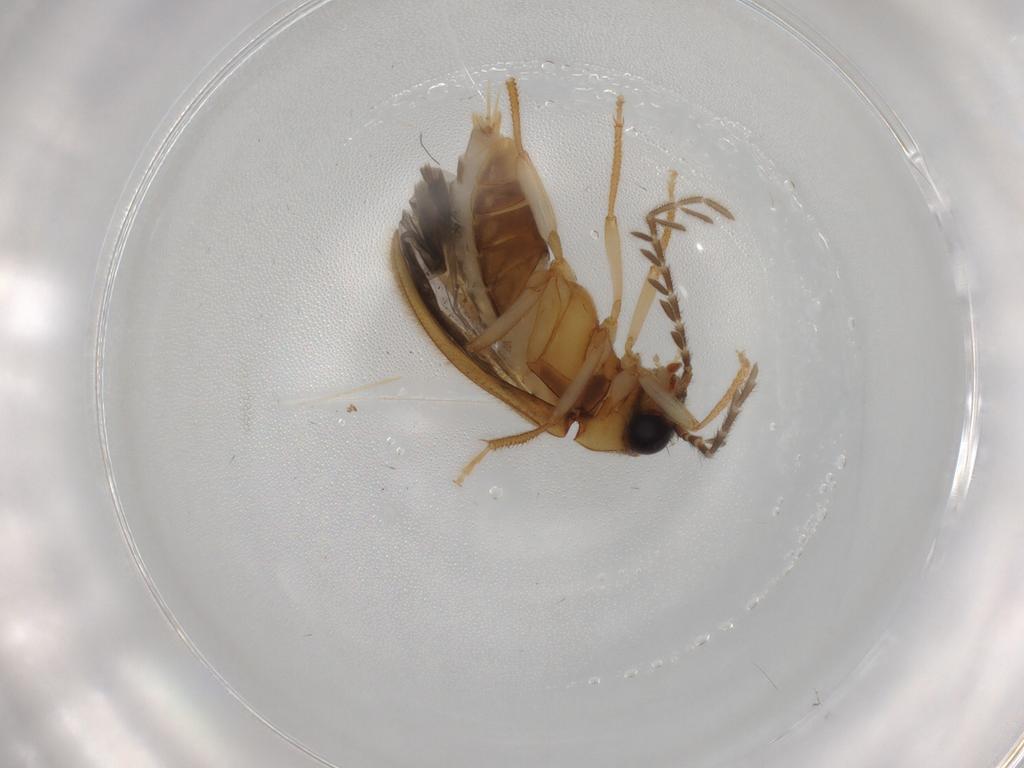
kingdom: Animalia
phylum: Arthropoda
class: Insecta
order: Coleoptera
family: Ptilodactylidae
